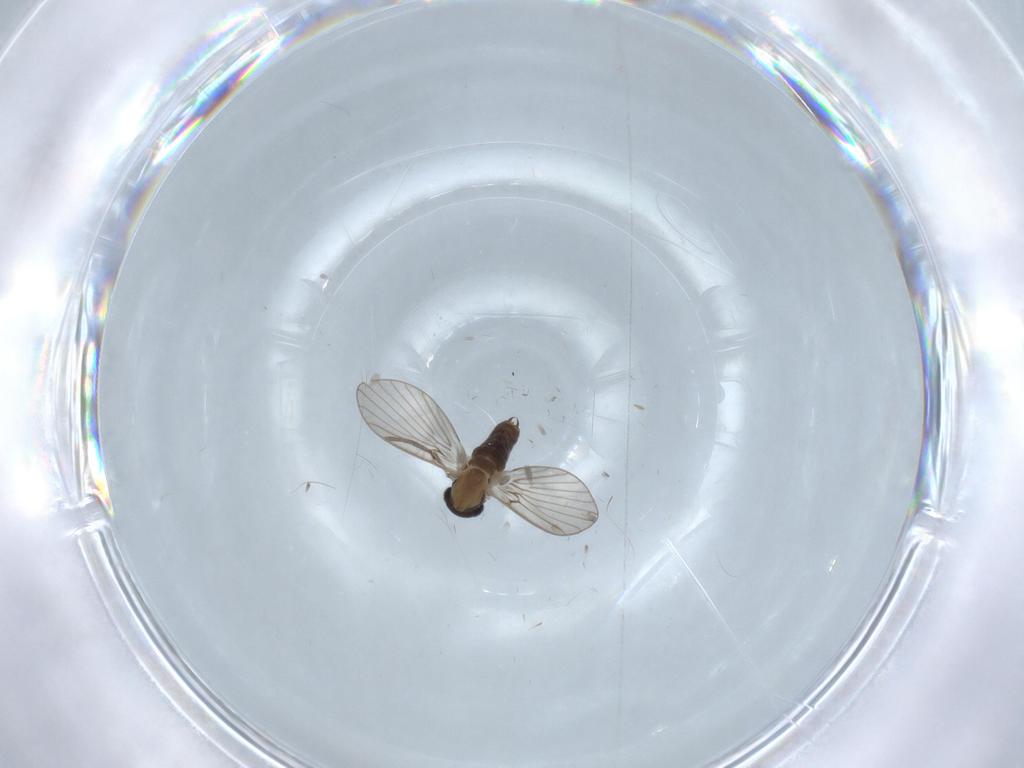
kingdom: Animalia
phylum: Arthropoda
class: Insecta
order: Diptera
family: Psychodidae
